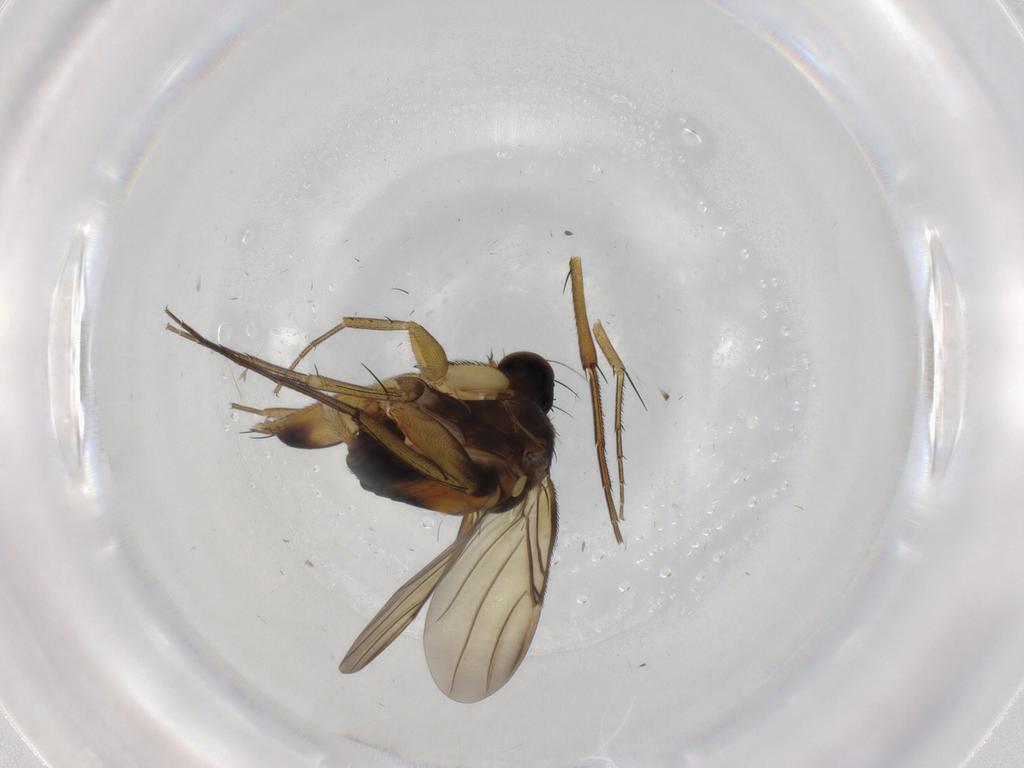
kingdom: Animalia
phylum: Arthropoda
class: Insecta
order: Diptera
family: Phoridae
